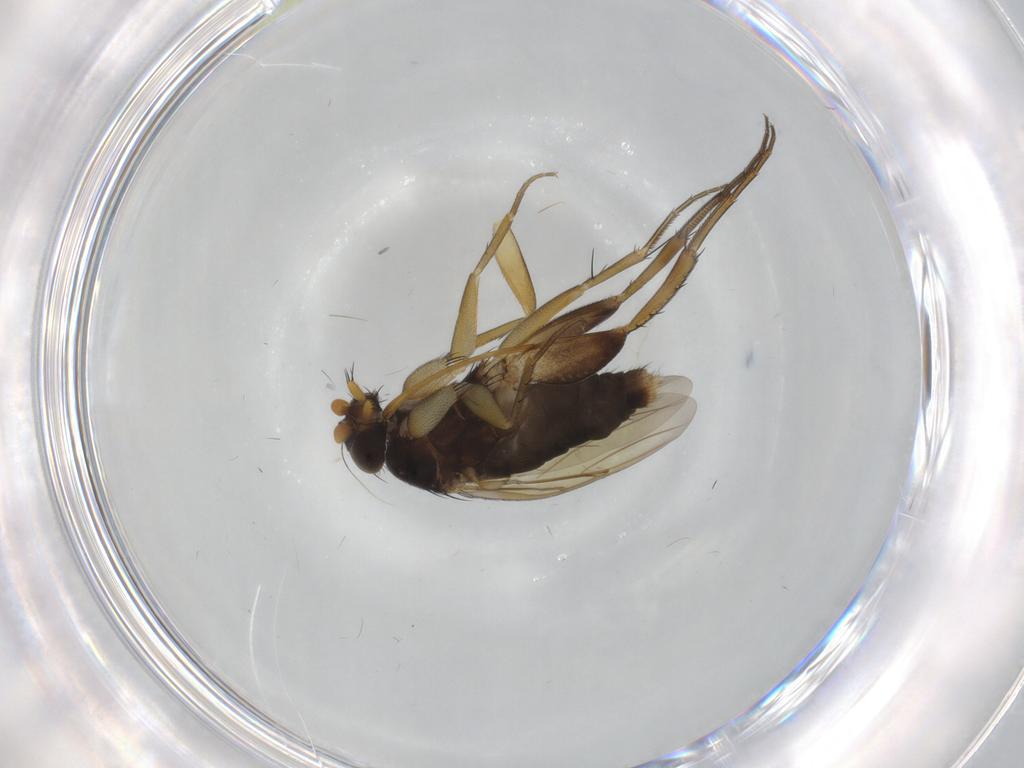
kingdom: Animalia
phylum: Arthropoda
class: Insecta
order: Diptera
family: Phoridae
